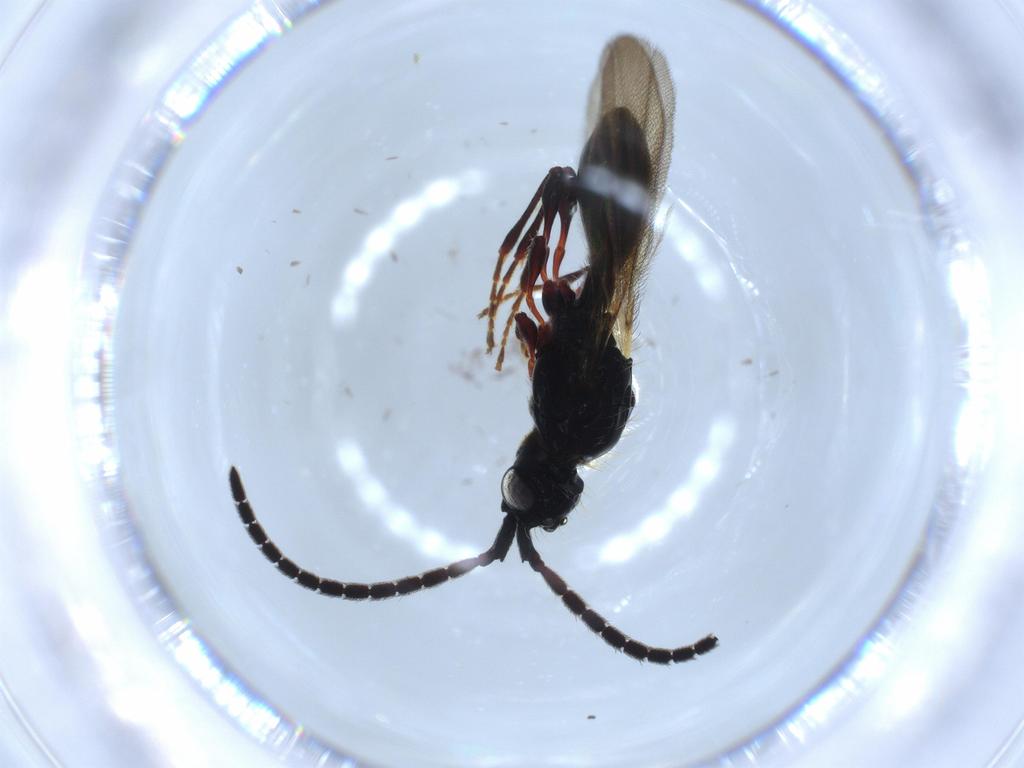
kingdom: Animalia
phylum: Arthropoda
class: Insecta
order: Hymenoptera
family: Diapriidae
